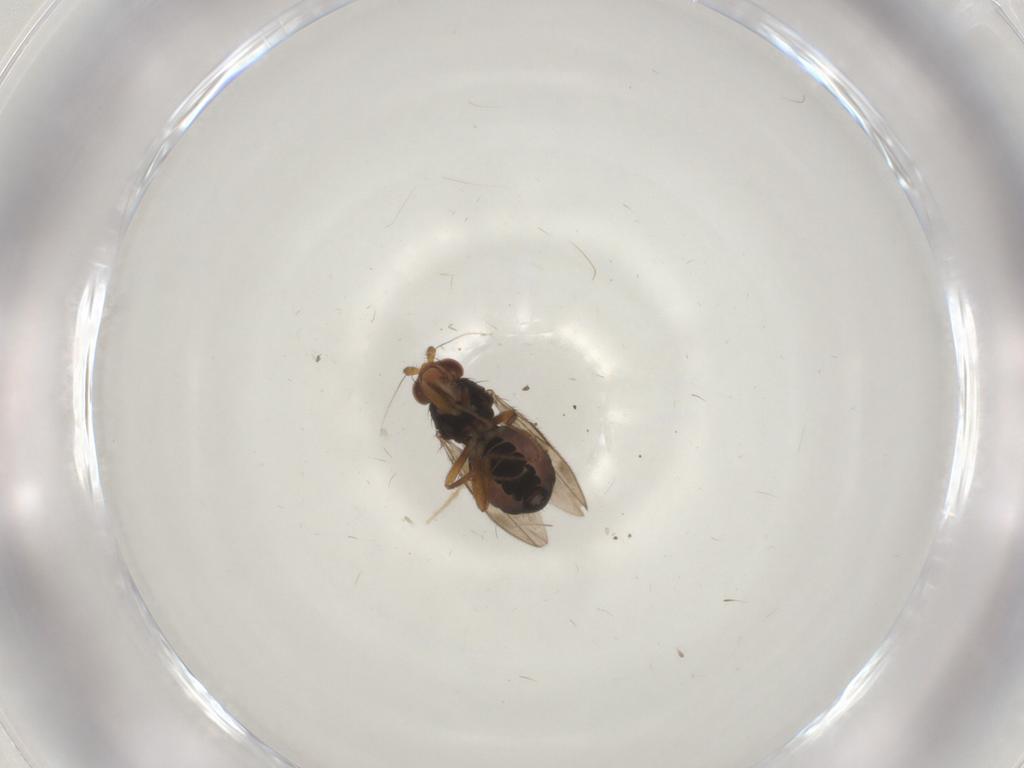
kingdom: Animalia
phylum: Arthropoda
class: Insecta
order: Diptera
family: Sphaeroceridae
